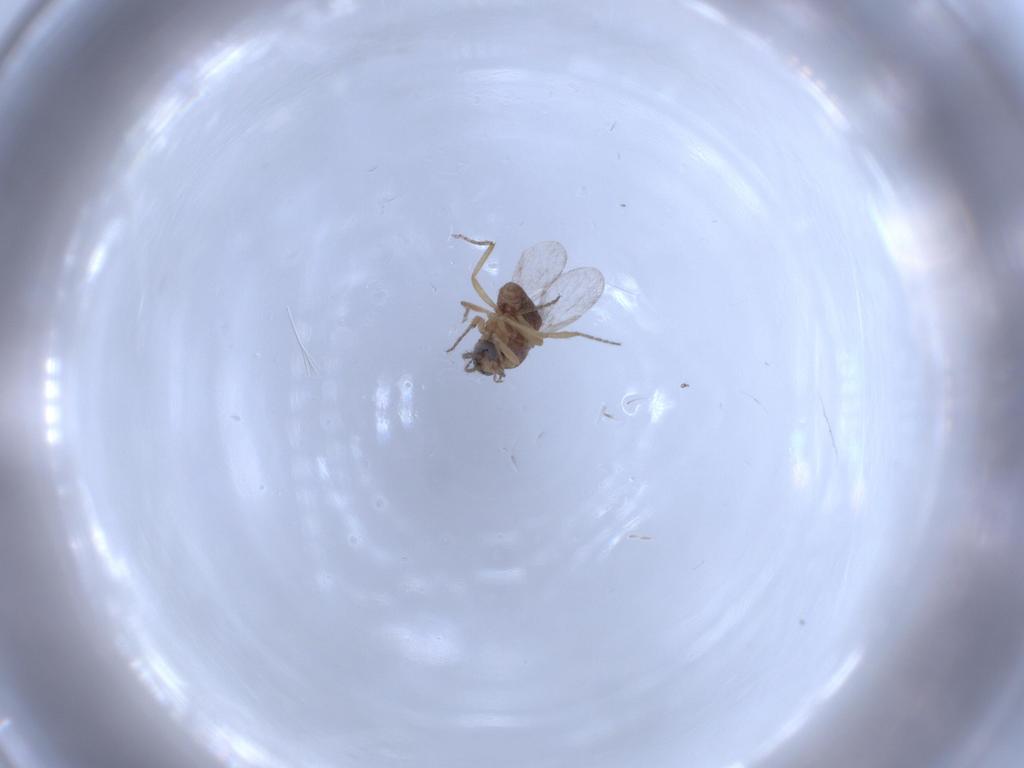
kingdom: Animalia
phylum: Arthropoda
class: Insecta
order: Diptera
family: Ceratopogonidae
